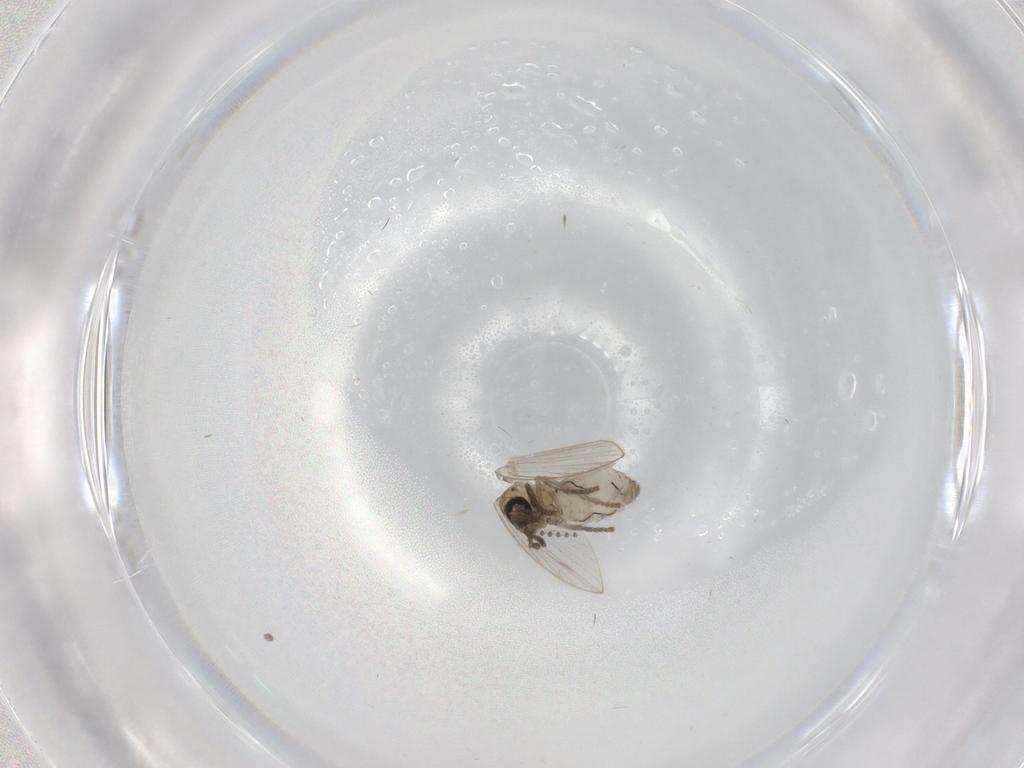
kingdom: Animalia
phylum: Arthropoda
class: Insecta
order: Diptera
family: Psychodidae
